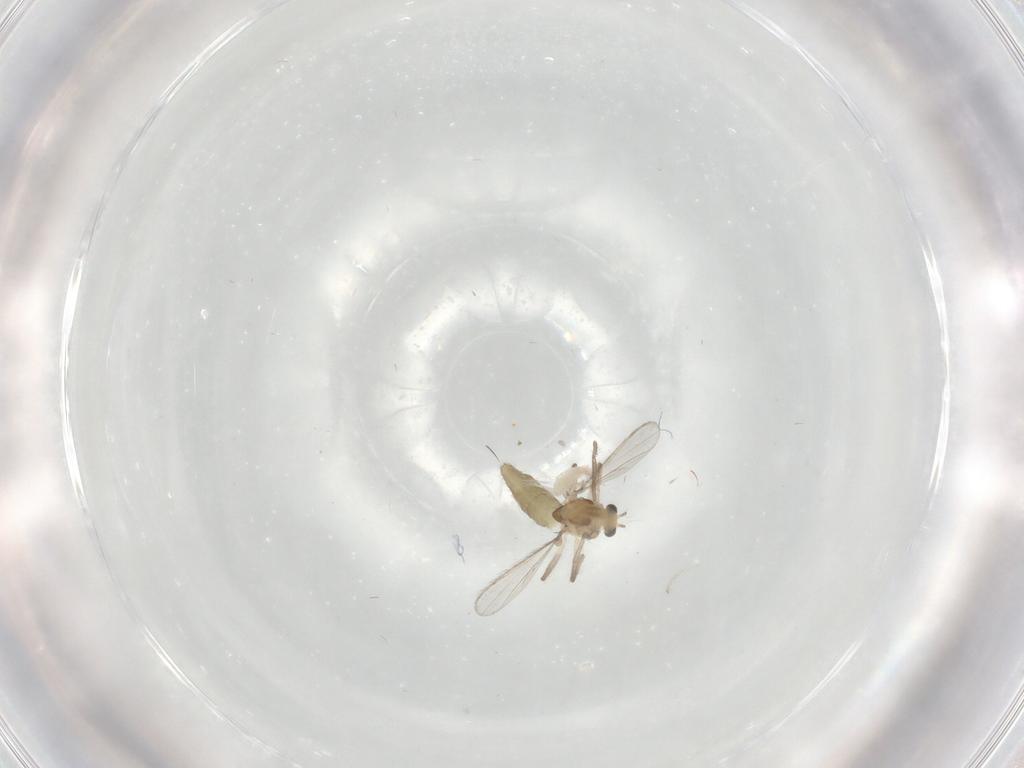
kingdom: Animalia
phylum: Arthropoda
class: Insecta
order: Diptera
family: Chironomidae
